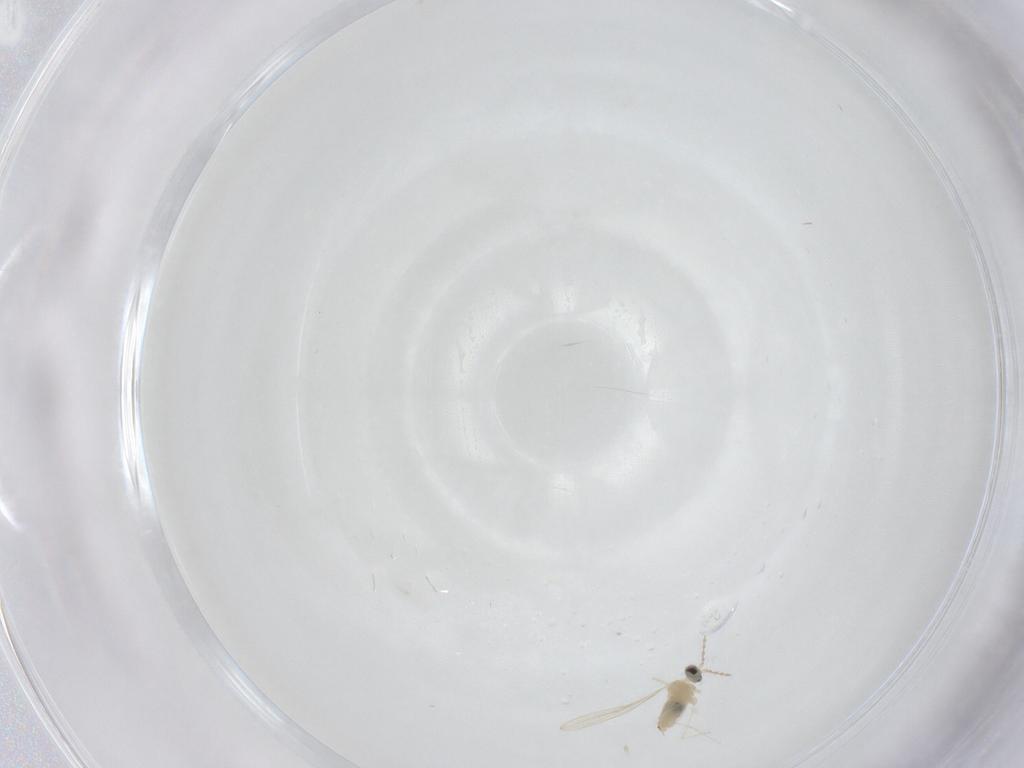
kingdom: Animalia
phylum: Arthropoda
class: Insecta
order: Diptera
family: Cecidomyiidae
